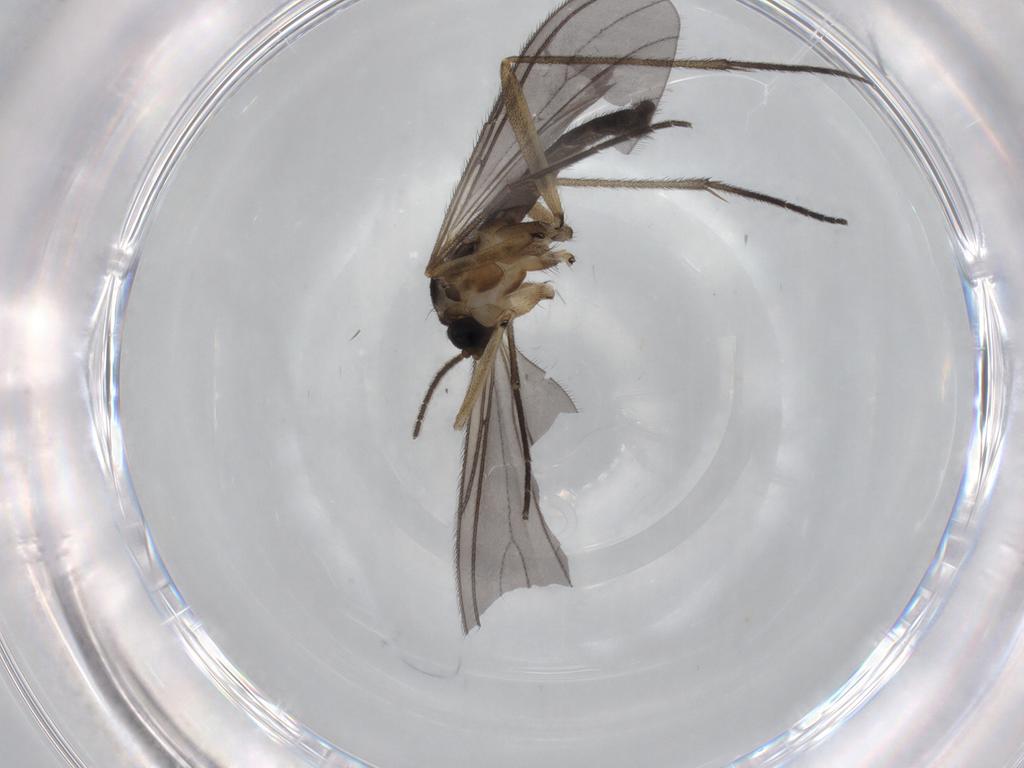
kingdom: Animalia
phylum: Arthropoda
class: Insecta
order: Diptera
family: Sciaridae
